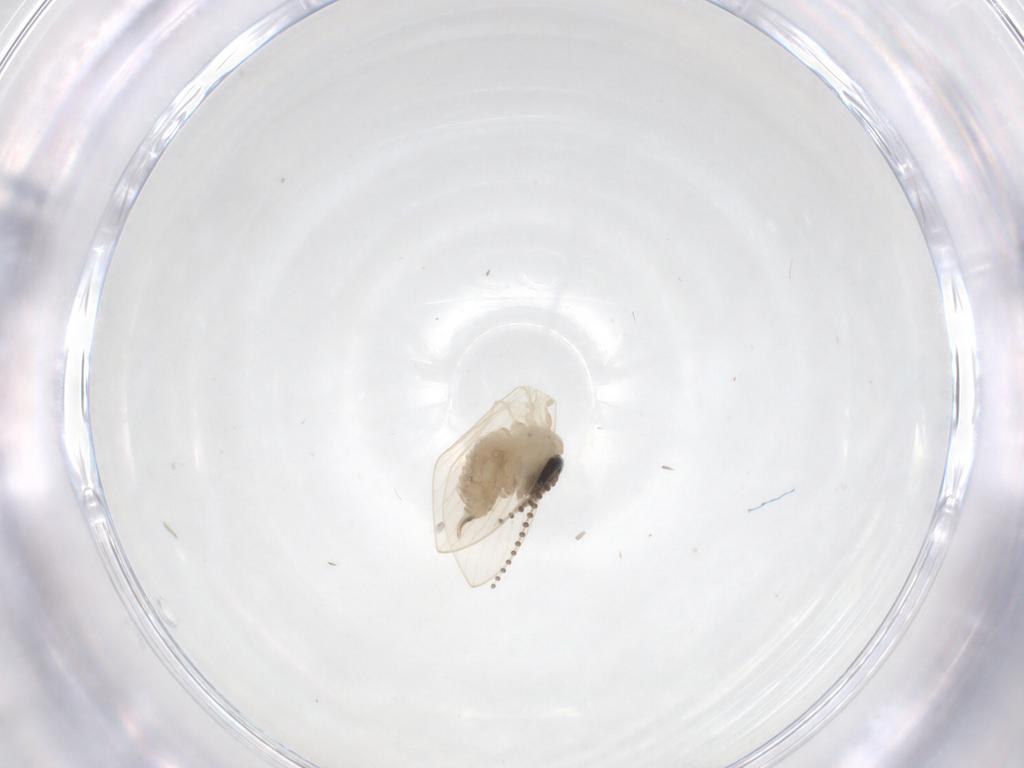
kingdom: Animalia
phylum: Arthropoda
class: Insecta
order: Diptera
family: Psychodidae
